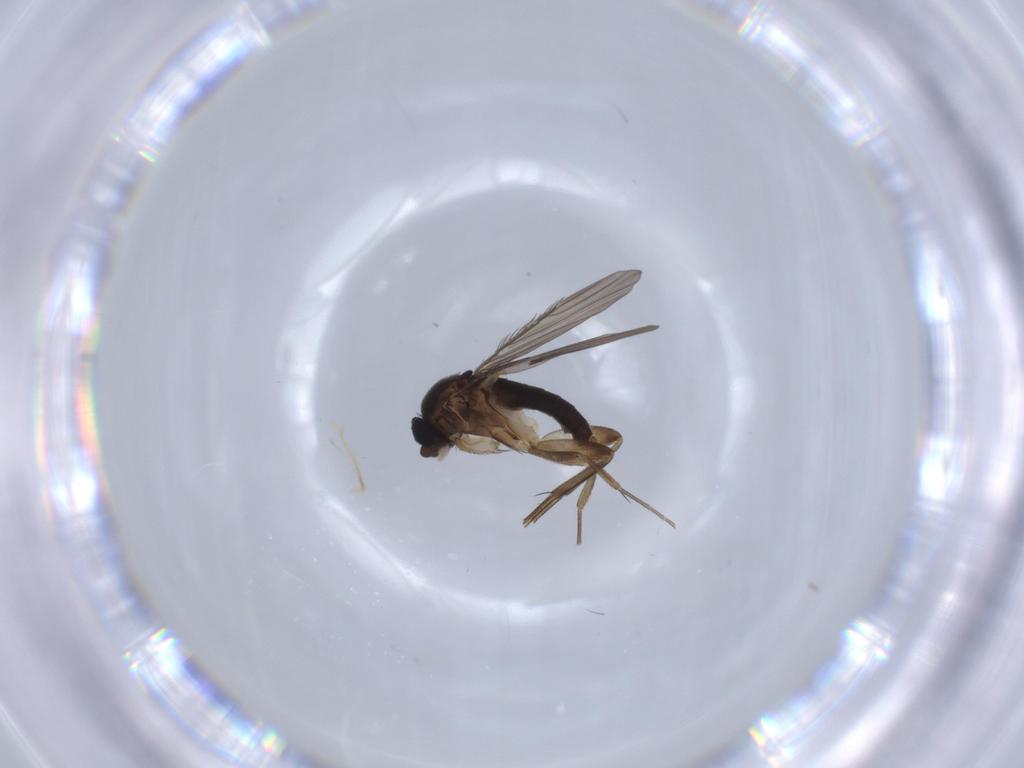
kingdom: Animalia
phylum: Arthropoda
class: Insecta
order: Diptera
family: Phoridae
